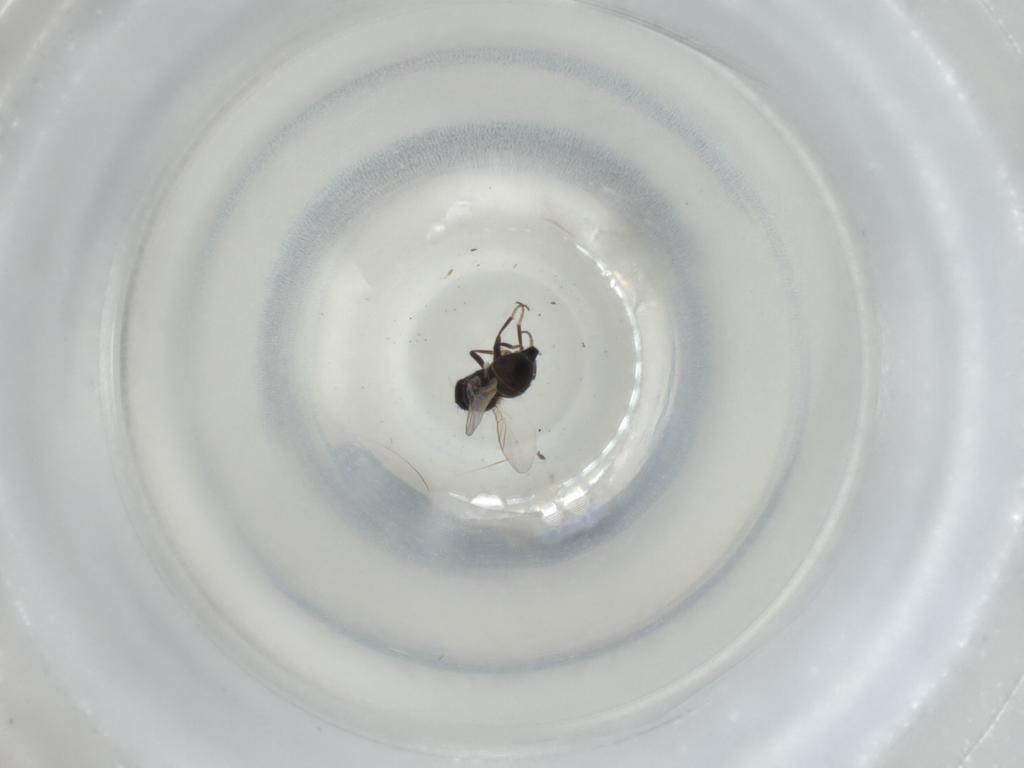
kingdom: Animalia
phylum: Arthropoda
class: Insecta
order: Diptera
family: Agromyzidae
